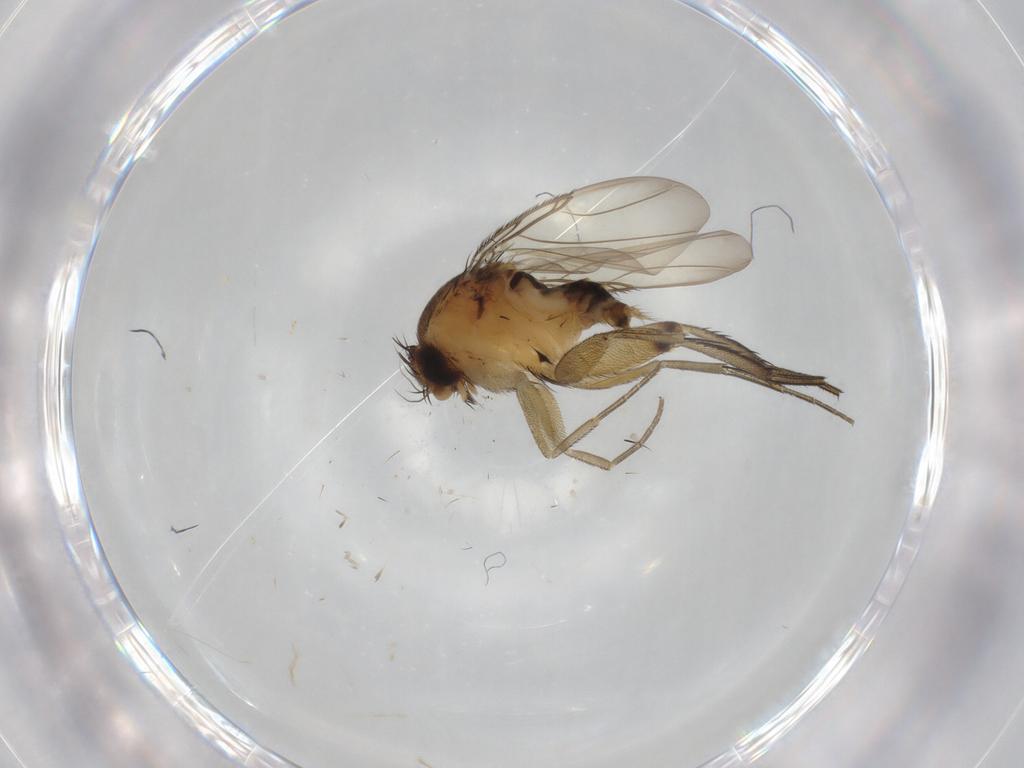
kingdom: Animalia
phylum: Arthropoda
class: Insecta
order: Diptera
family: Phoridae
